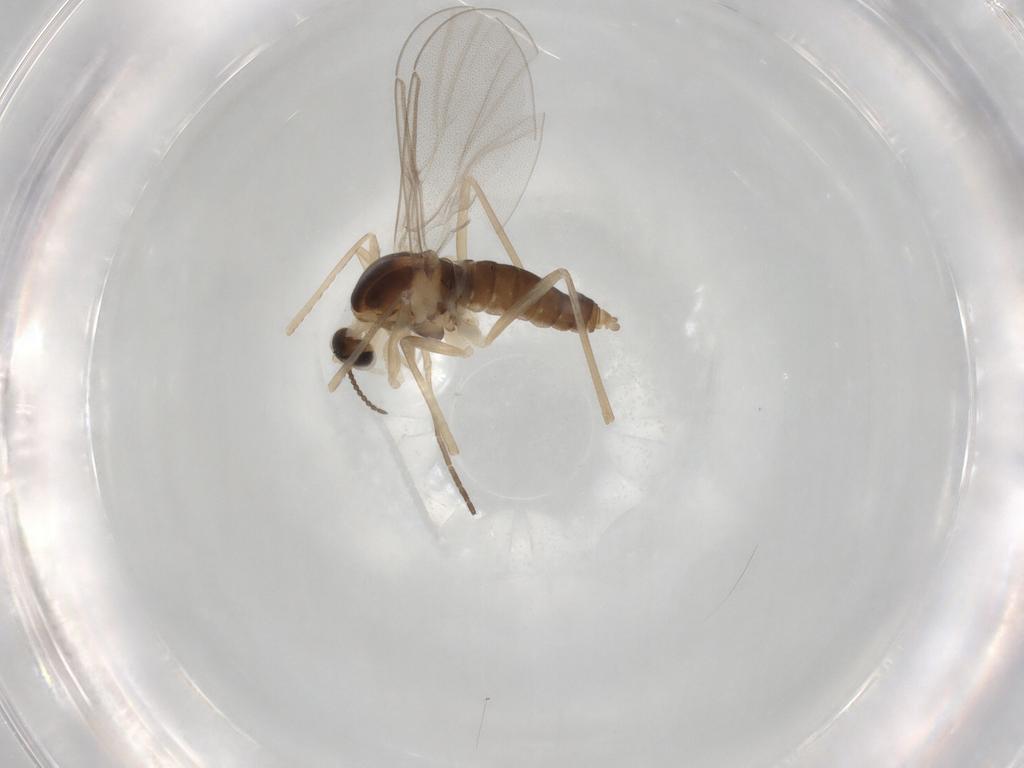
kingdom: Animalia
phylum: Arthropoda
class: Insecta
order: Diptera
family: Cecidomyiidae
